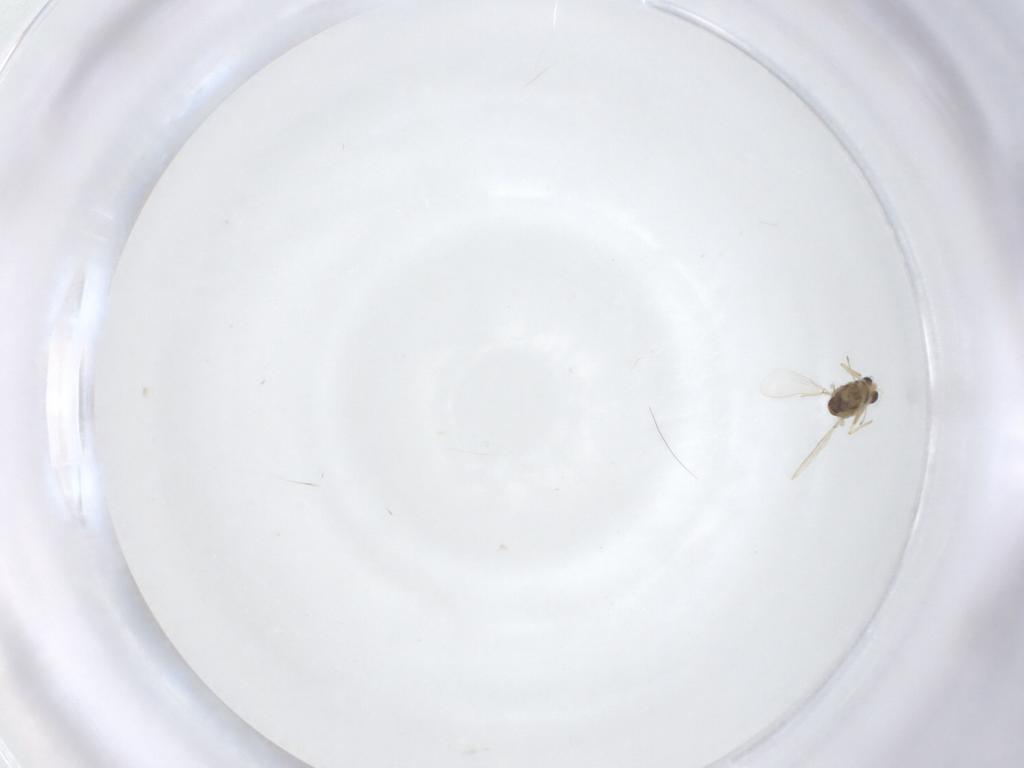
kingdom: Animalia
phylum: Arthropoda
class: Insecta
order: Diptera
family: Chironomidae
